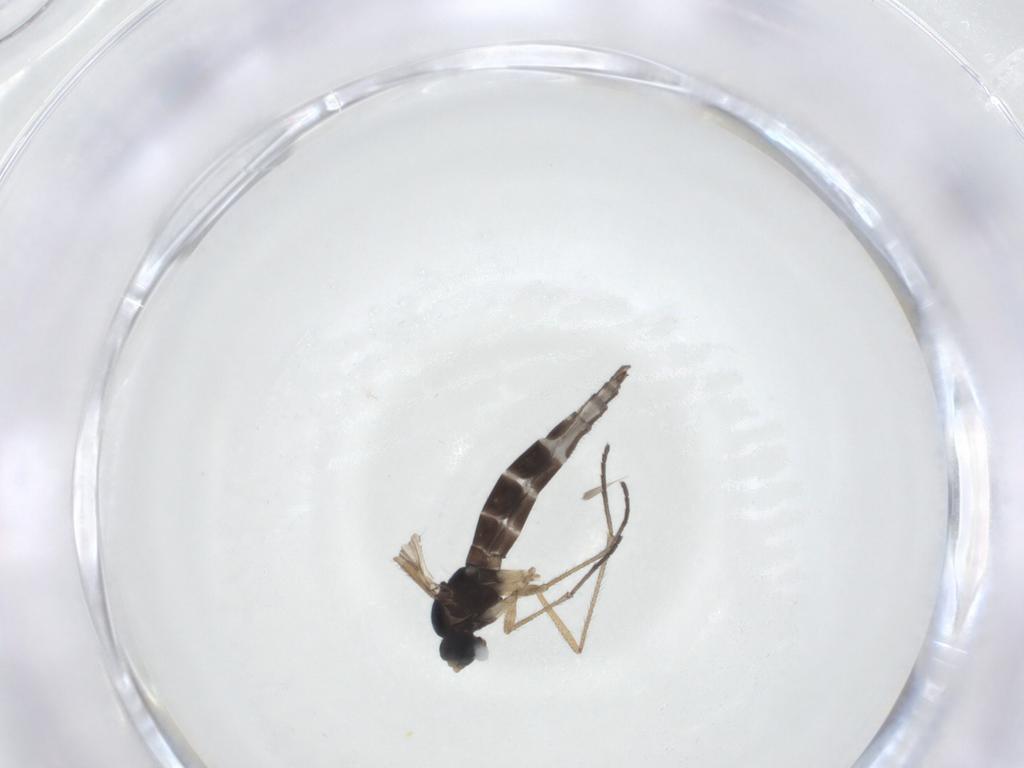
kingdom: Animalia
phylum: Arthropoda
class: Insecta
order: Diptera
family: Sciaridae
